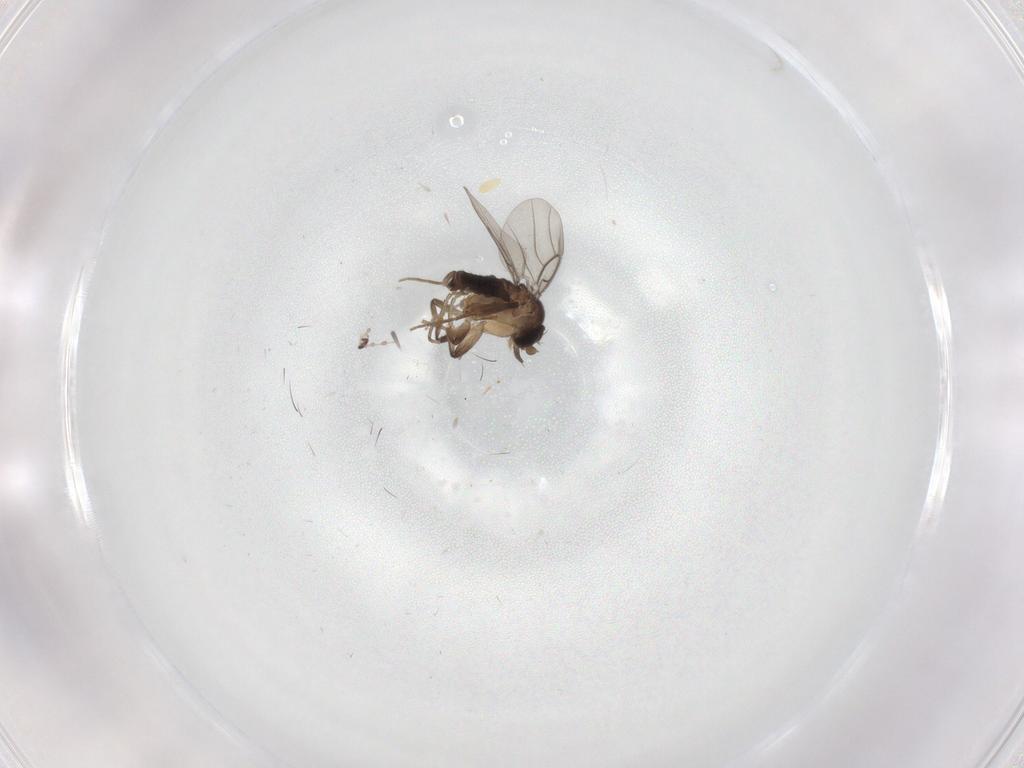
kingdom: Animalia
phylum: Arthropoda
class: Insecta
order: Diptera
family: Cecidomyiidae
